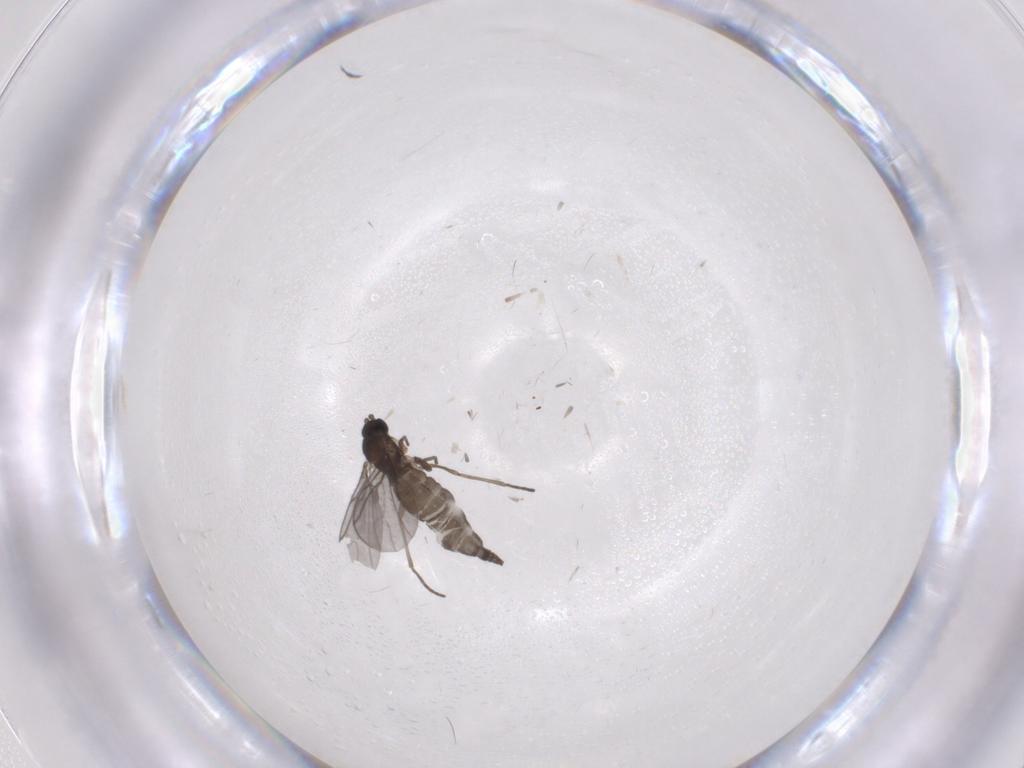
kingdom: Animalia
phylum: Arthropoda
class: Insecta
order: Diptera
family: Sciaridae
